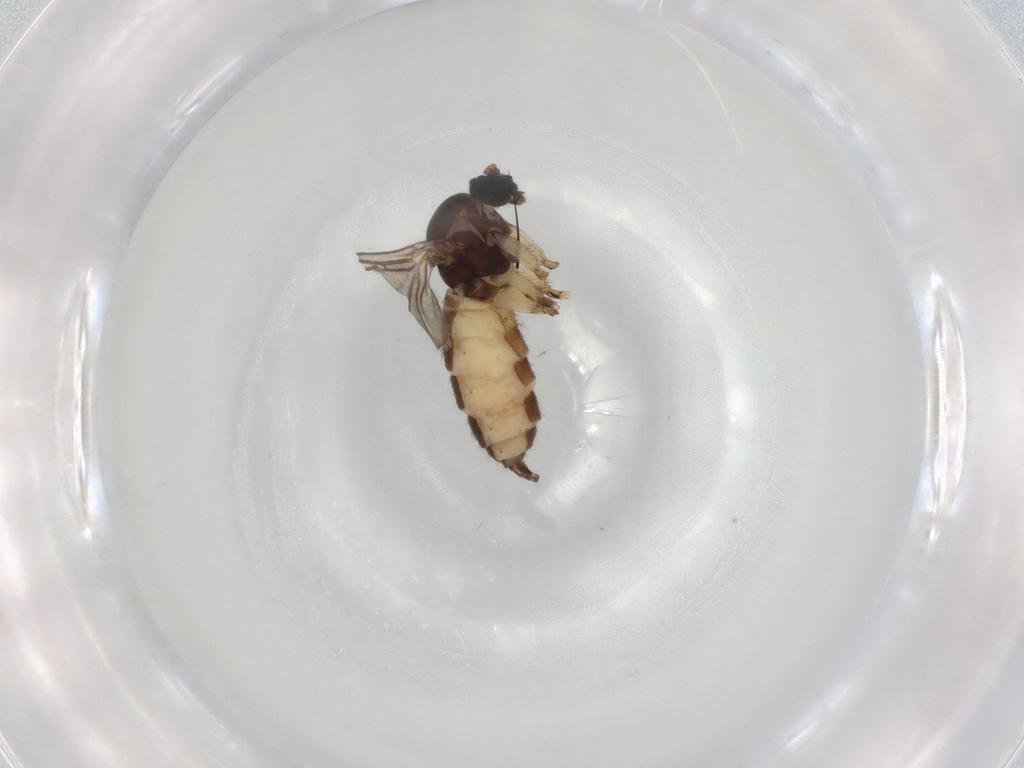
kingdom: Animalia
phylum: Arthropoda
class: Insecta
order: Diptera
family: Sciaridae
